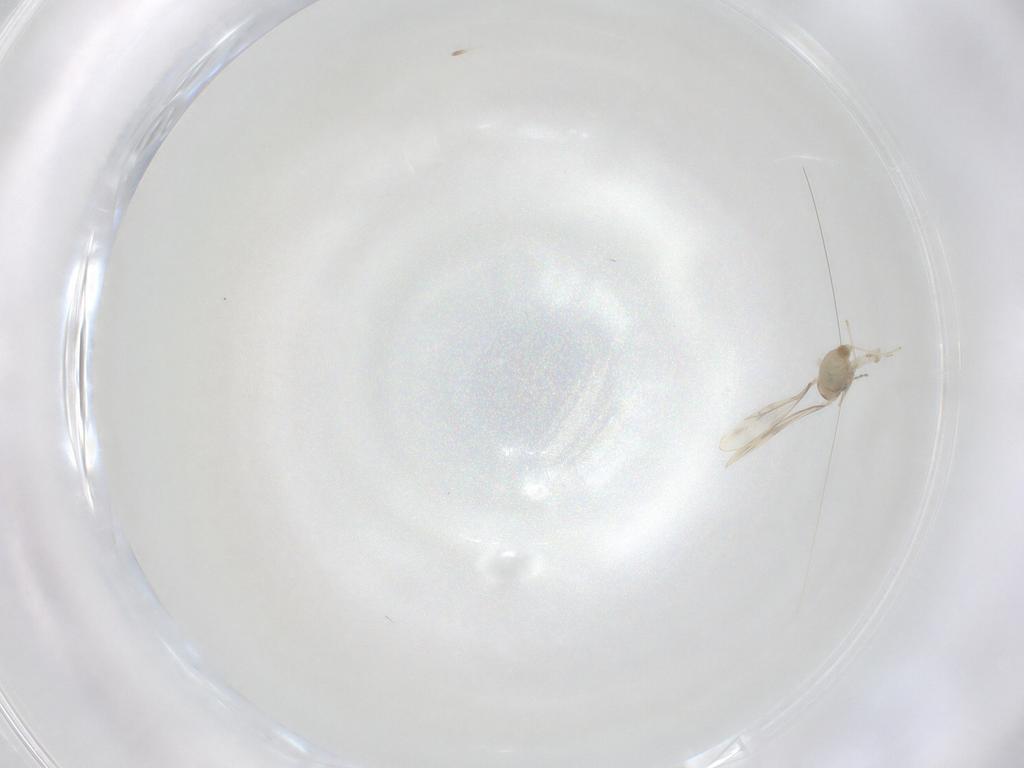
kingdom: Animalia
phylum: Arthropoda
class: Insecta
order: Diptera
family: Cecidomyiidae
